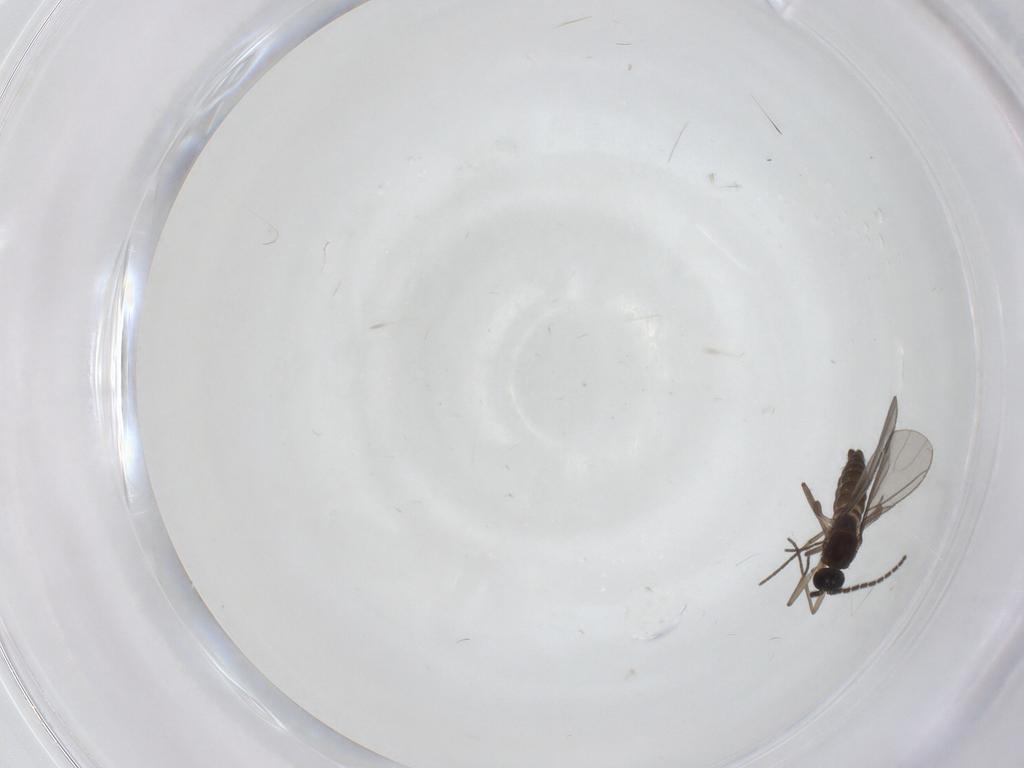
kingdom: Animalia
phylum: Arthropoda
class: Insecta
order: Diptera
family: Sciaridae
